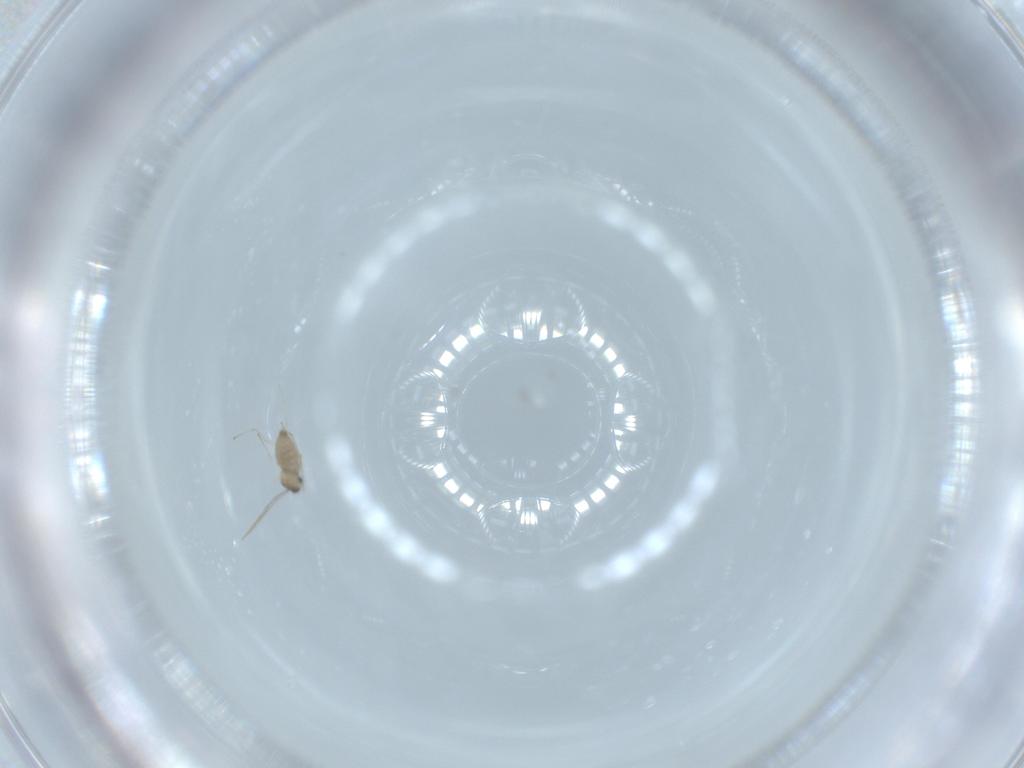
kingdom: Animalia
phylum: Arthropoda
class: Insecta
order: Diptera
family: Cecidomyiidae
